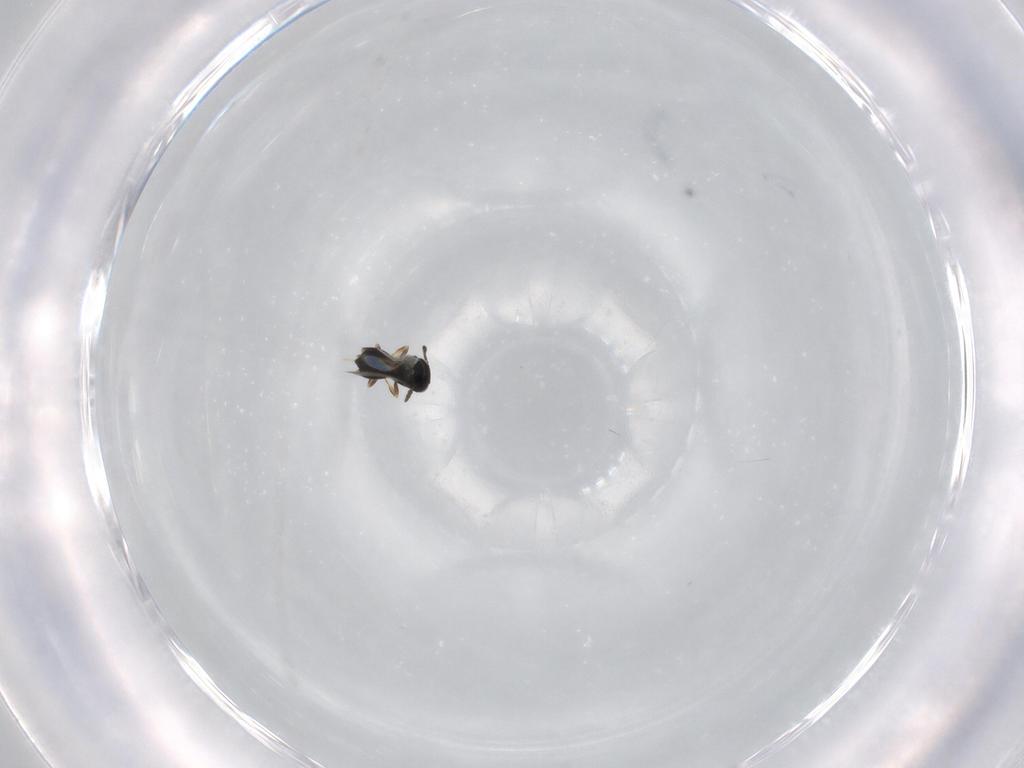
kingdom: Animalia
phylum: Arthropoda
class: Insecta
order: Hymenoptera
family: Scelionidae
